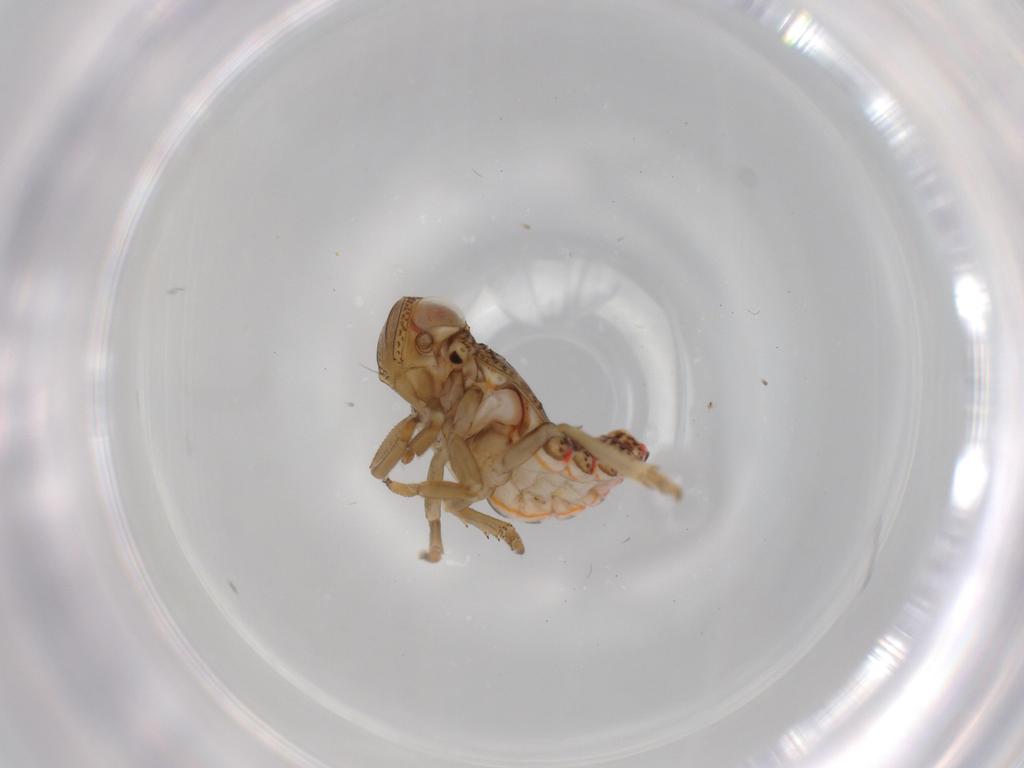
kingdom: Animalia
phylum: Arthropoda
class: Insecta
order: Hemiptera
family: Issidae
